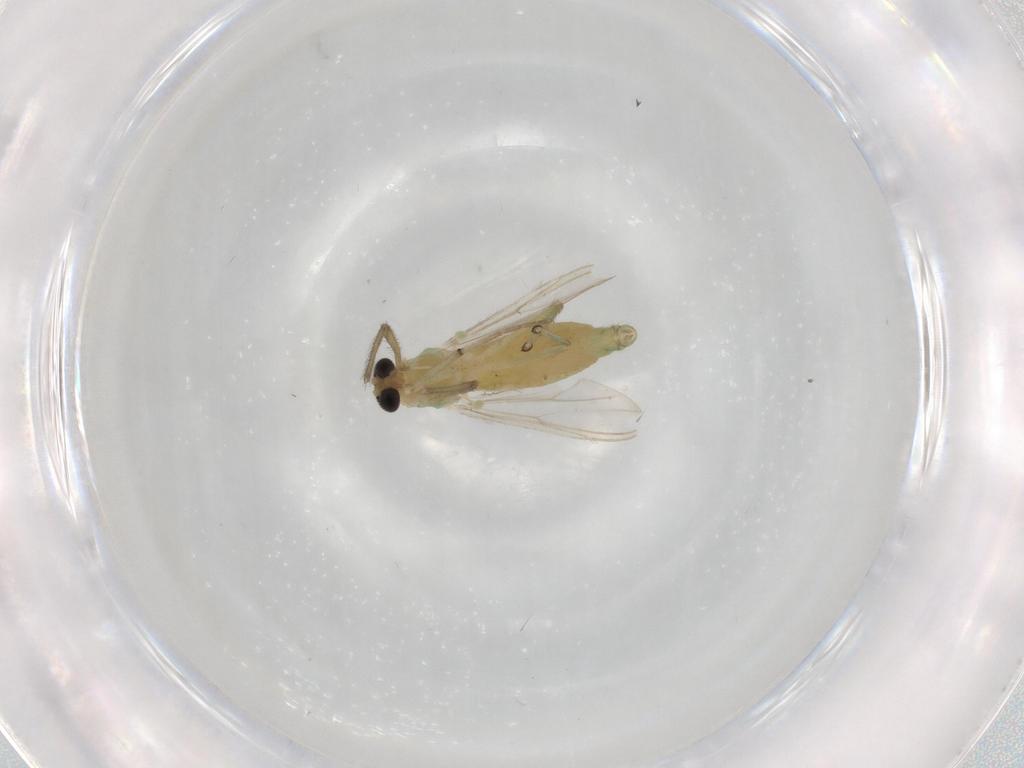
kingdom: Animalia
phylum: Arthropoda
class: Insecta
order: Diptera
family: Chironomidae
